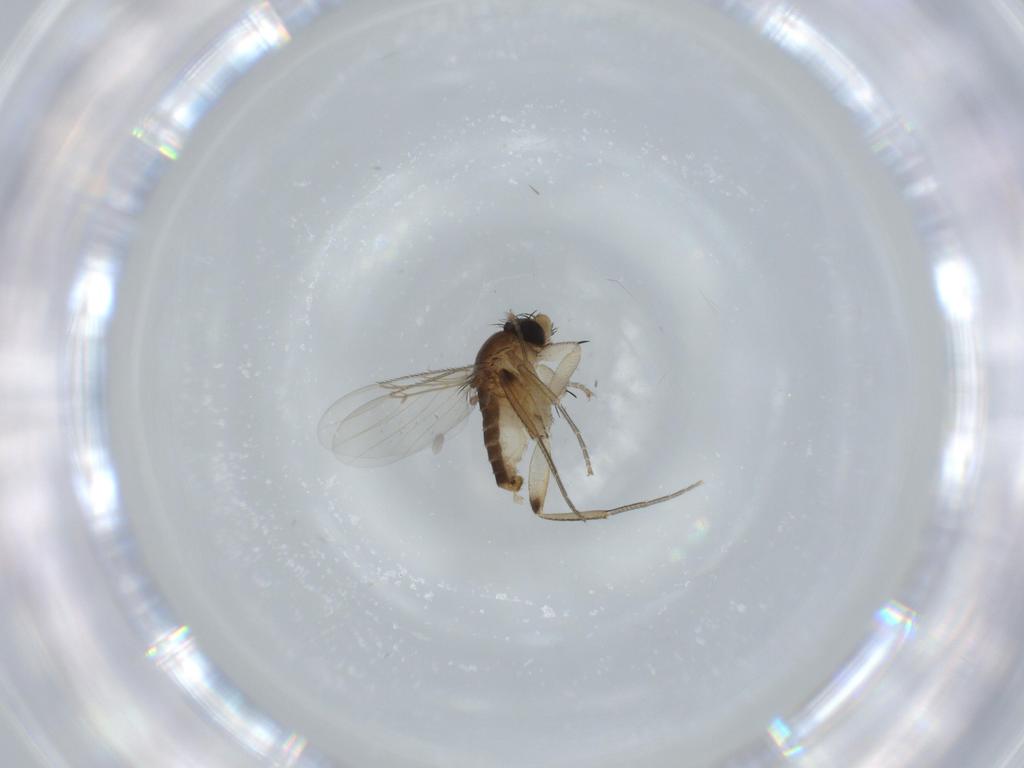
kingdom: Animalia
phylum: Arthropoda
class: Insecta
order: Diptera
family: Phoridae
